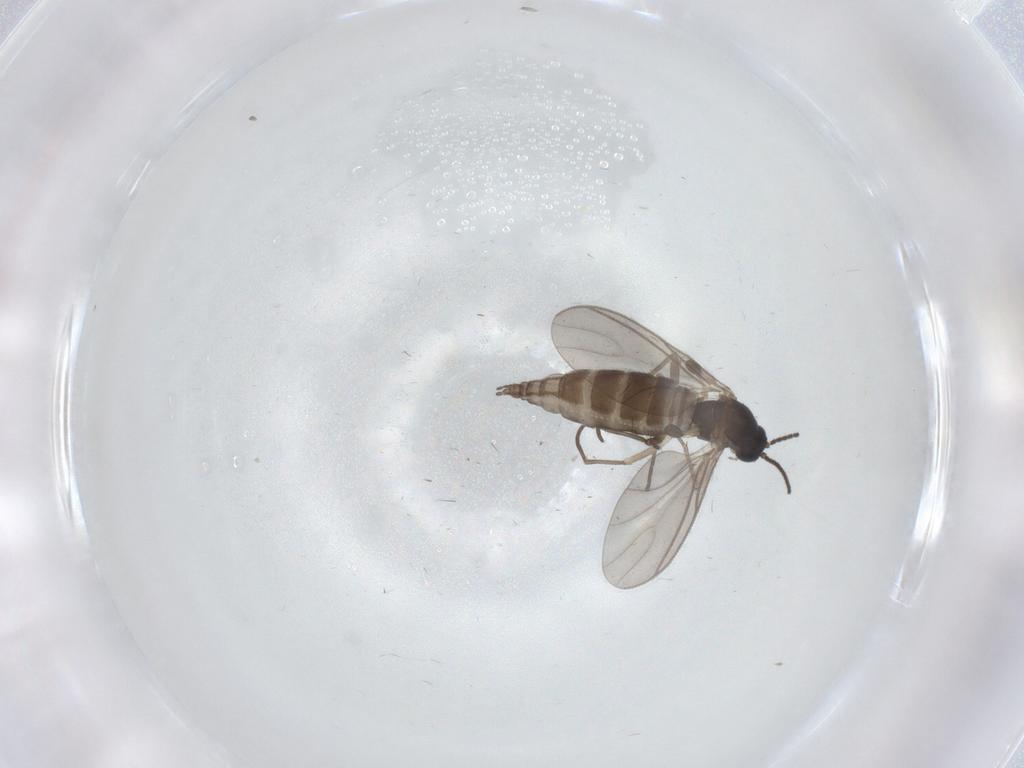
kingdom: Animalia
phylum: Arthropoda
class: Insecta
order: Diptera
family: Sciaridae
